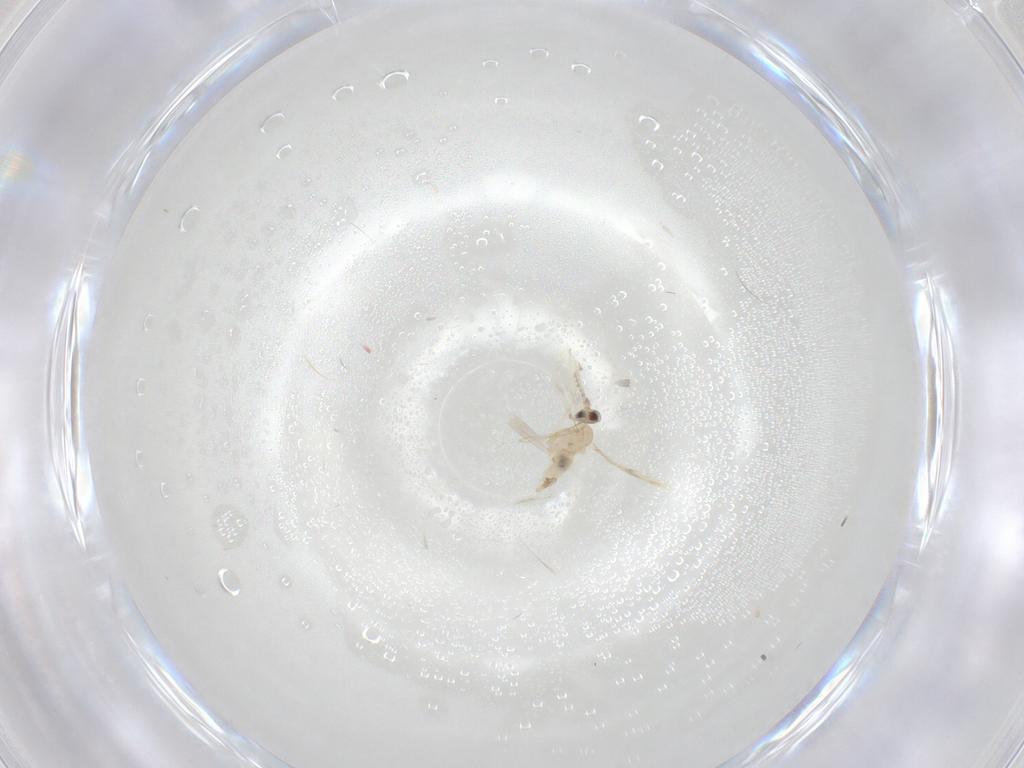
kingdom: Animalia
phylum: Arthropoda
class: Insecta
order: Diptera
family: Cecidomyiidae
